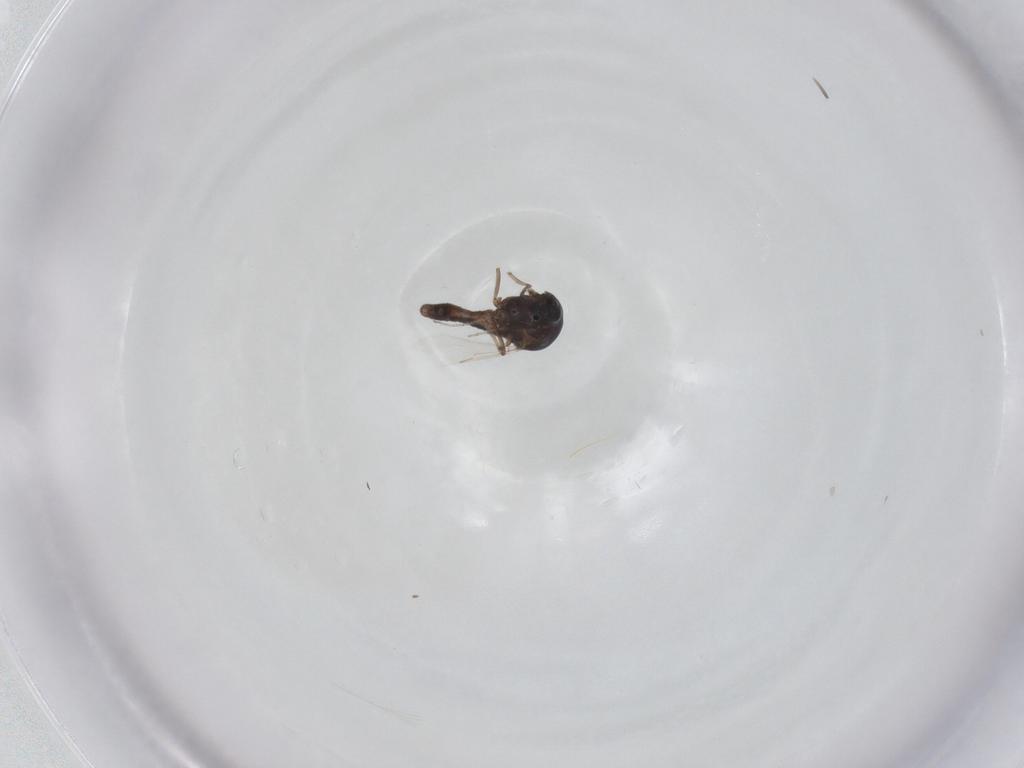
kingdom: Animalia
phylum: Arthropoda
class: Insecta
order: Diptera
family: Ceratopogonidae
